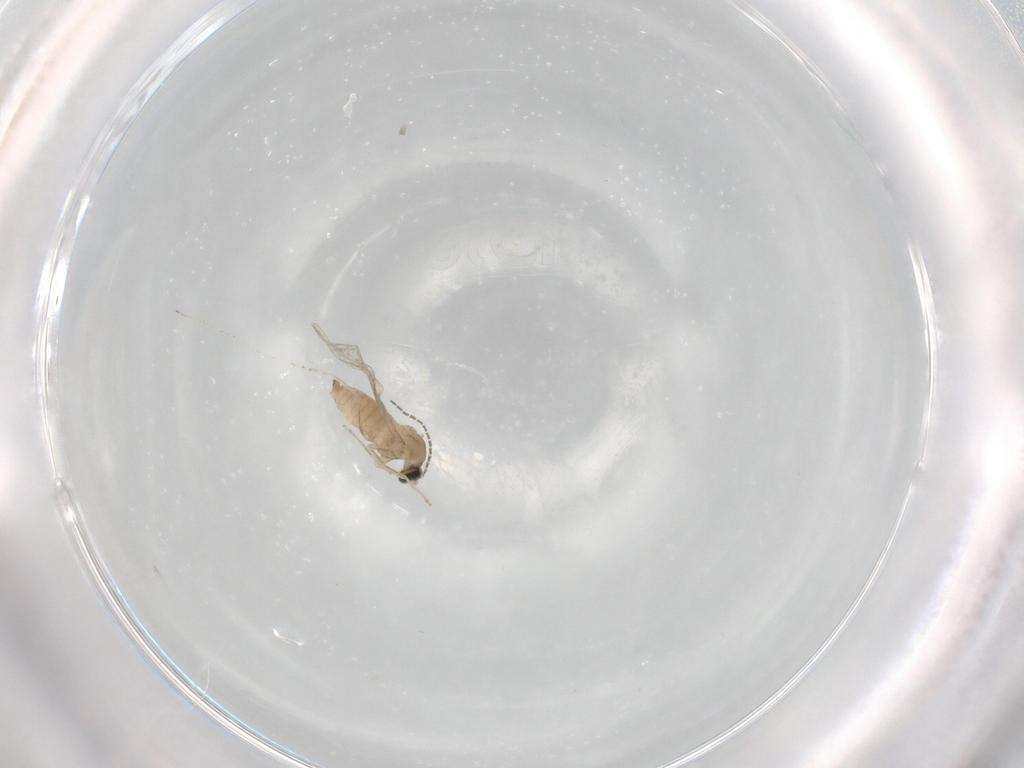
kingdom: Animalia
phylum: Arthropoda
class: Insecta
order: Diptera
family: Cecidomyiidae
